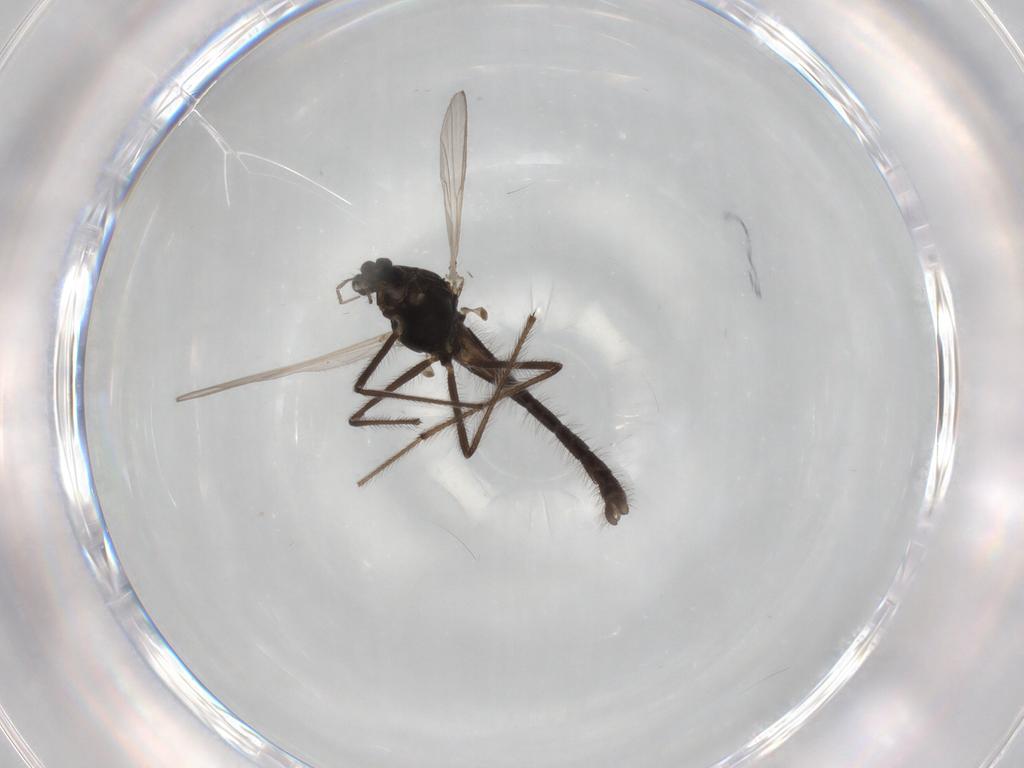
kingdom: Animalia
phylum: Arthropoda
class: Insecta
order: Diptera
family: Chironomidae
